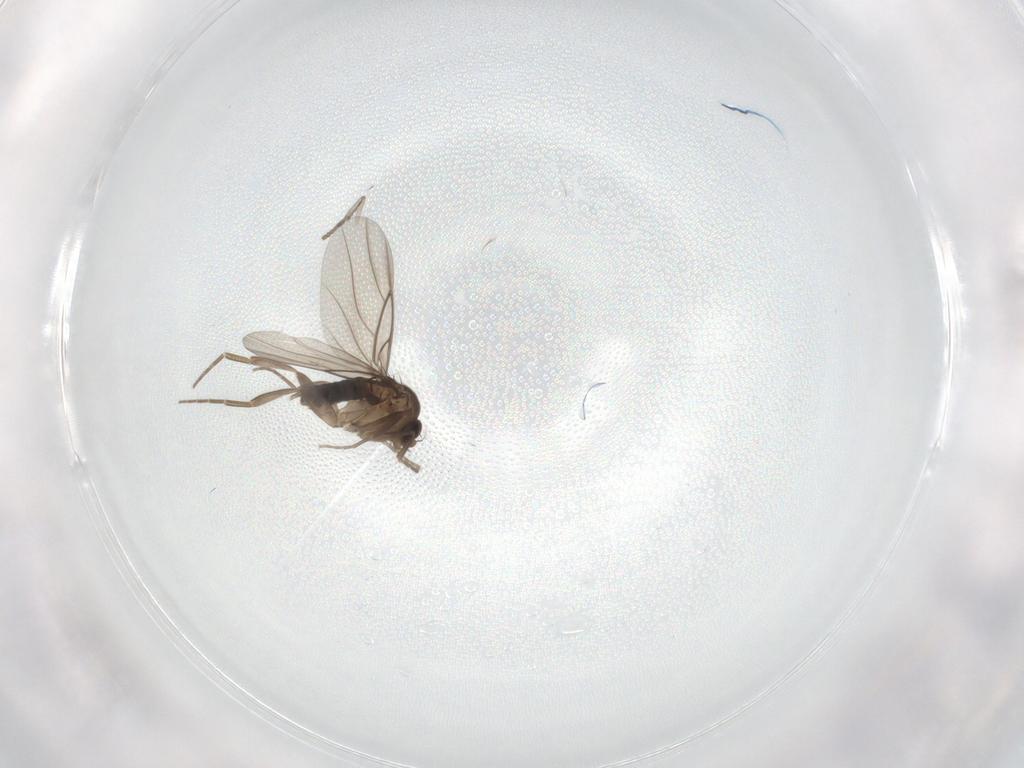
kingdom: Animalia
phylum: Arthropoda
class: Insecta
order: Diptera
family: Phoridae
